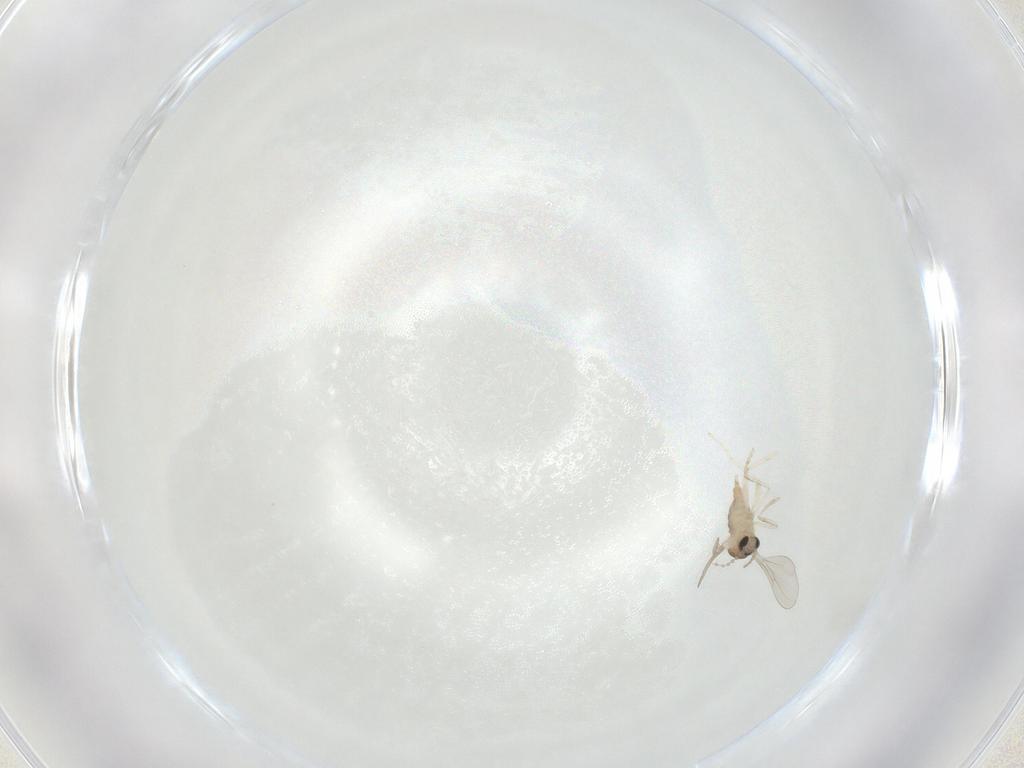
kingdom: Animalia
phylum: Arthropoda
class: Insecta
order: Diptera
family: Cecidomyiidae
